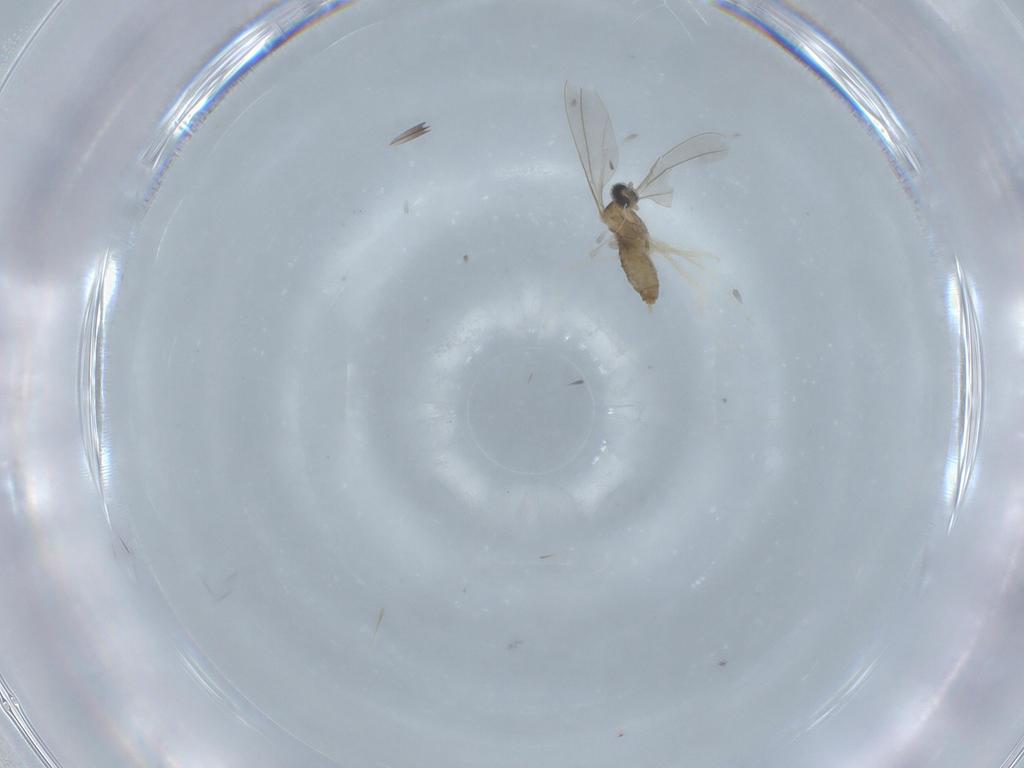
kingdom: Animalia
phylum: Arthropoda
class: Insecta
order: Diptera
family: Cecidomyiidae
